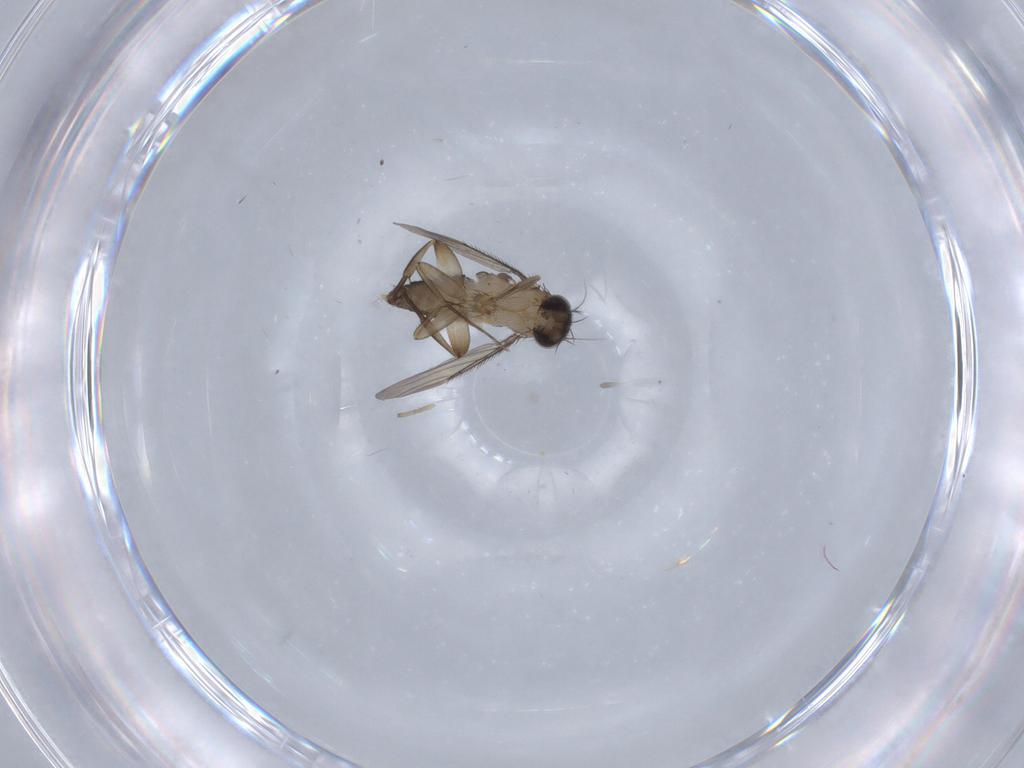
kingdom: Animalia
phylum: Arthropoda
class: Insecta
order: Diptera
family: Phoridae
